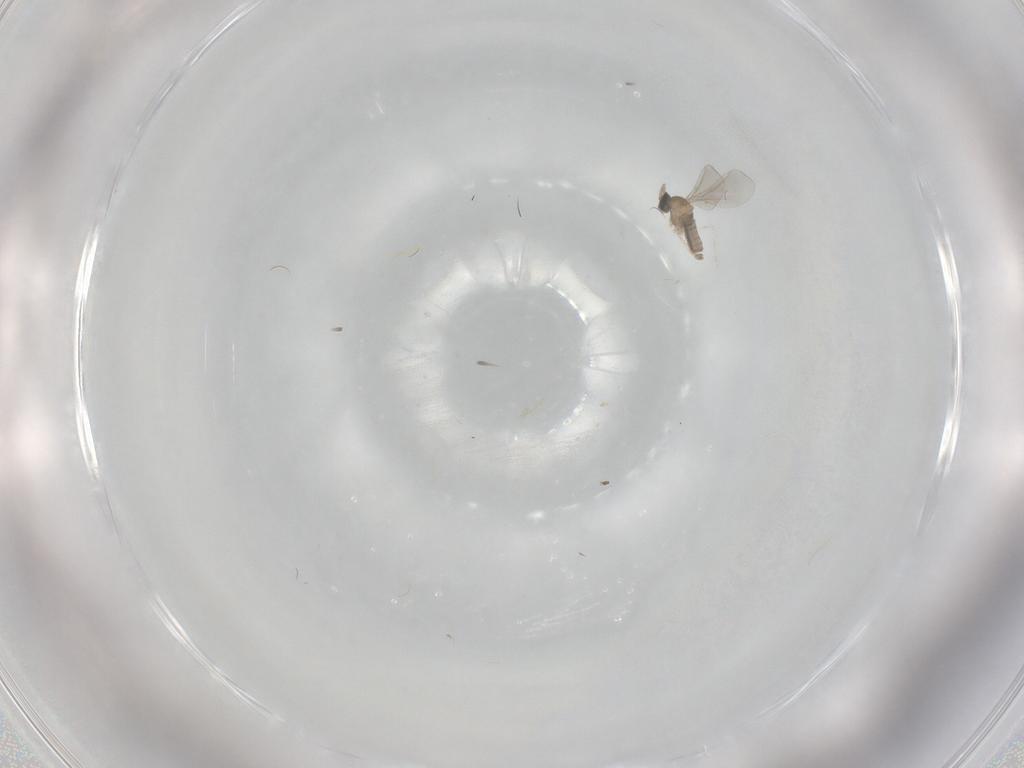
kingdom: Animalia
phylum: Arthropoda
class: Insecta
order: Diptera
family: Cecidomyiidae
